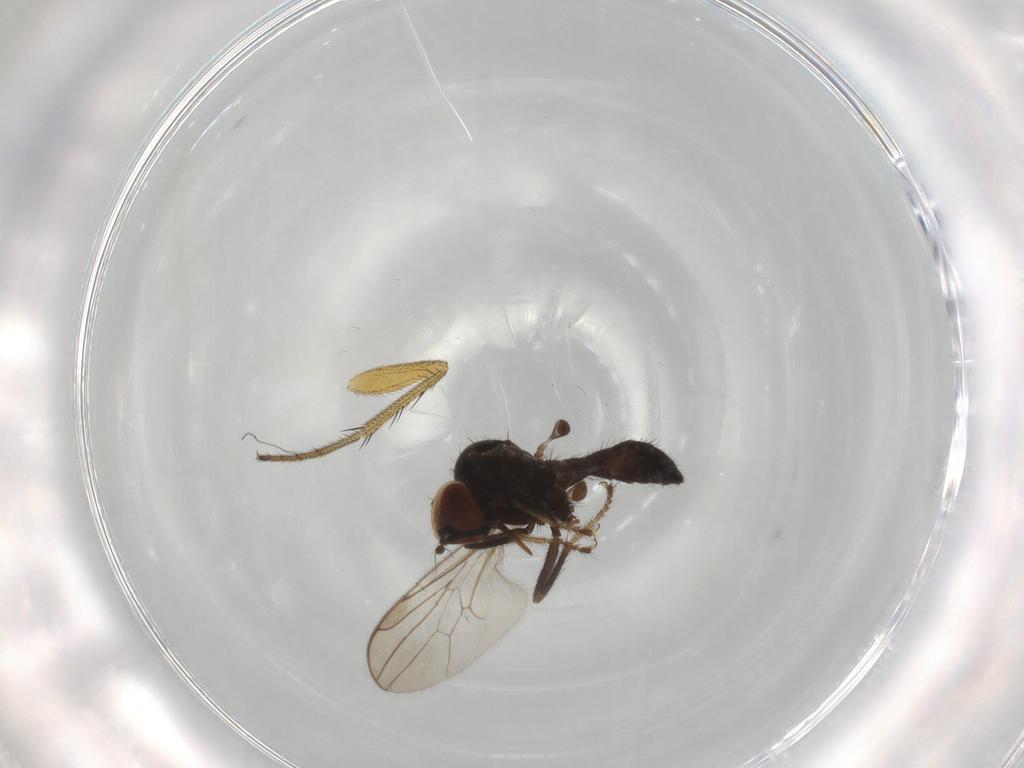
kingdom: Animalia
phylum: Arthropoda
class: Insecta
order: Diptera
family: Hybotidae
